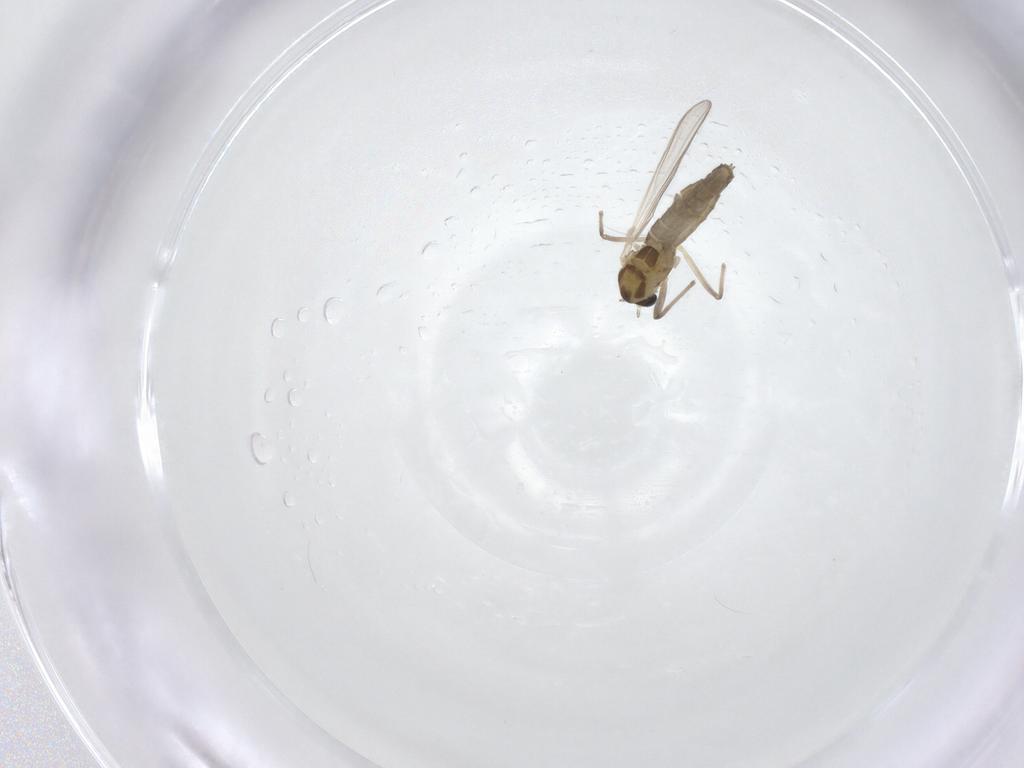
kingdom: Animalia
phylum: Arthropoda
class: Insecta
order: Diptera
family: Chironomidae
